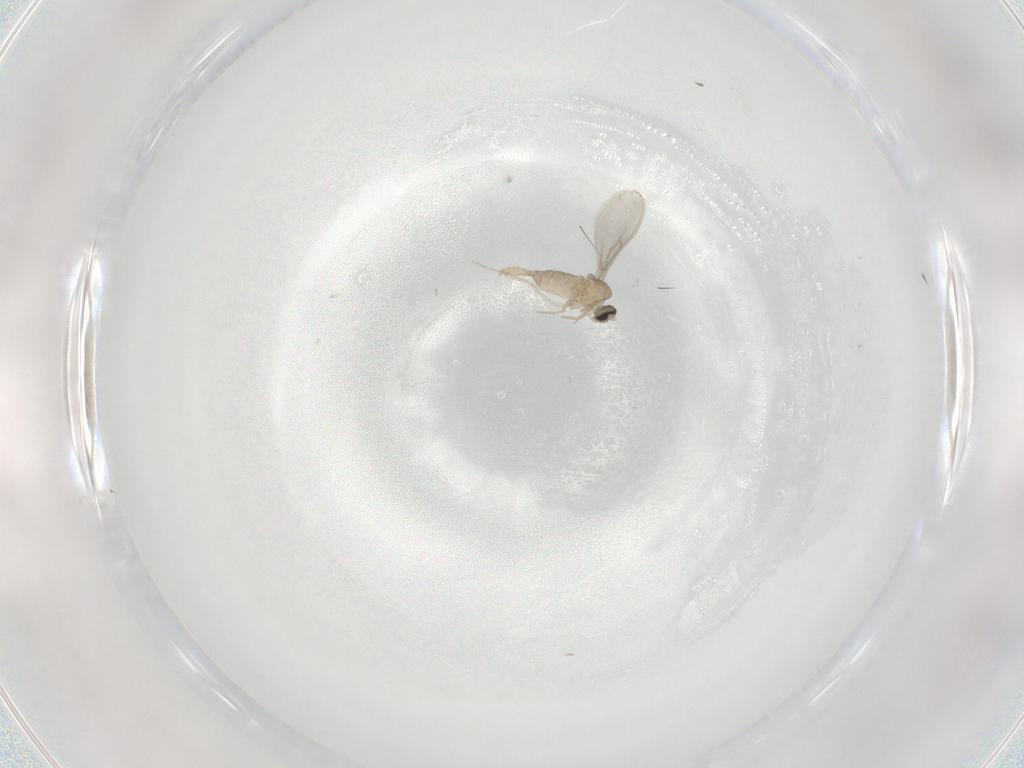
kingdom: Animalia
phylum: Arthropoda
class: Insecta
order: Diptera
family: Cecidomyiidae
